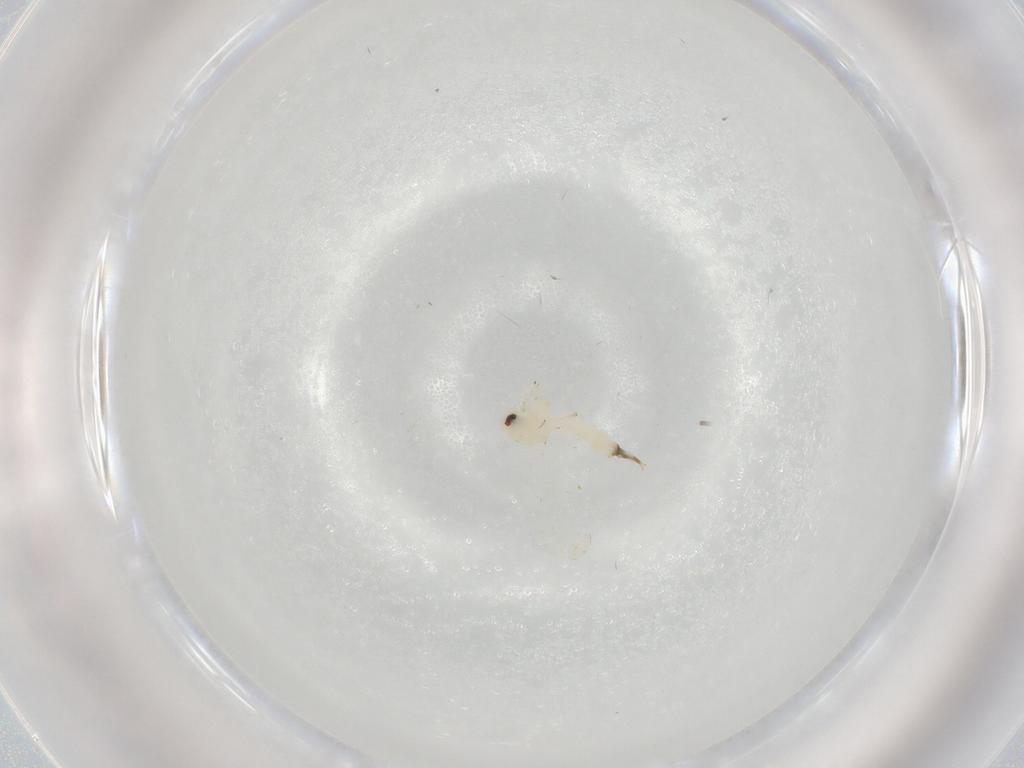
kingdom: Animalia
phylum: Arthropoda
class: Insecta
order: Hemiptera
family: Aleyrodidae
